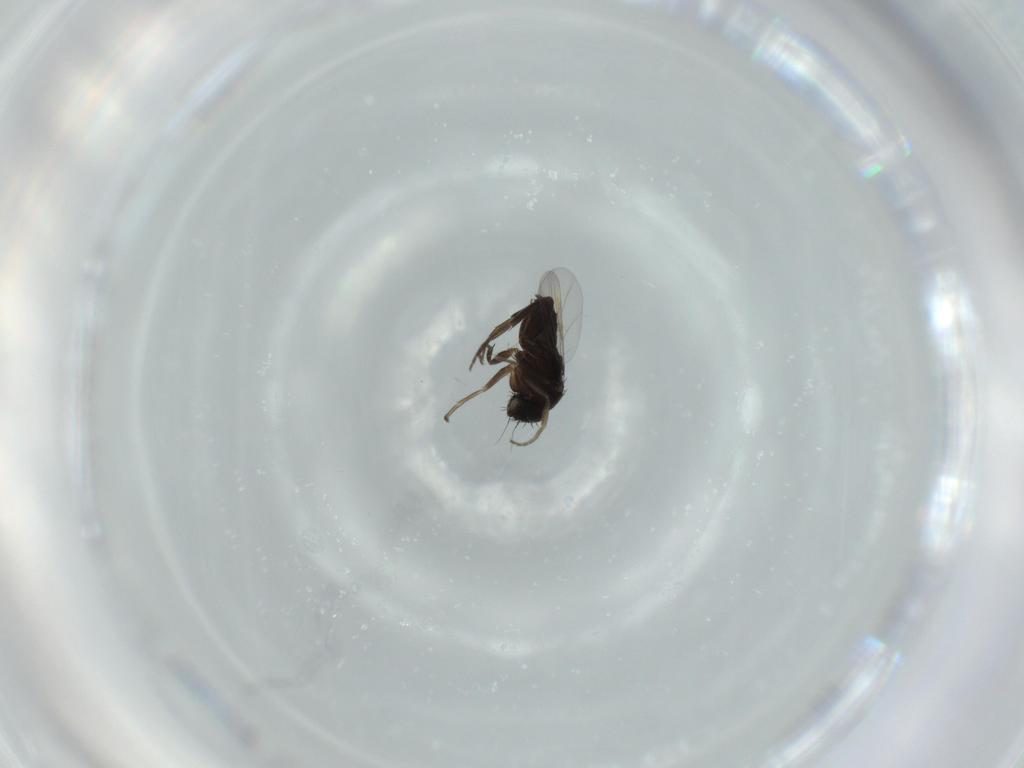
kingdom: Animalia
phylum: Arthropoda
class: Insecta
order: Diptera
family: Phoridae
